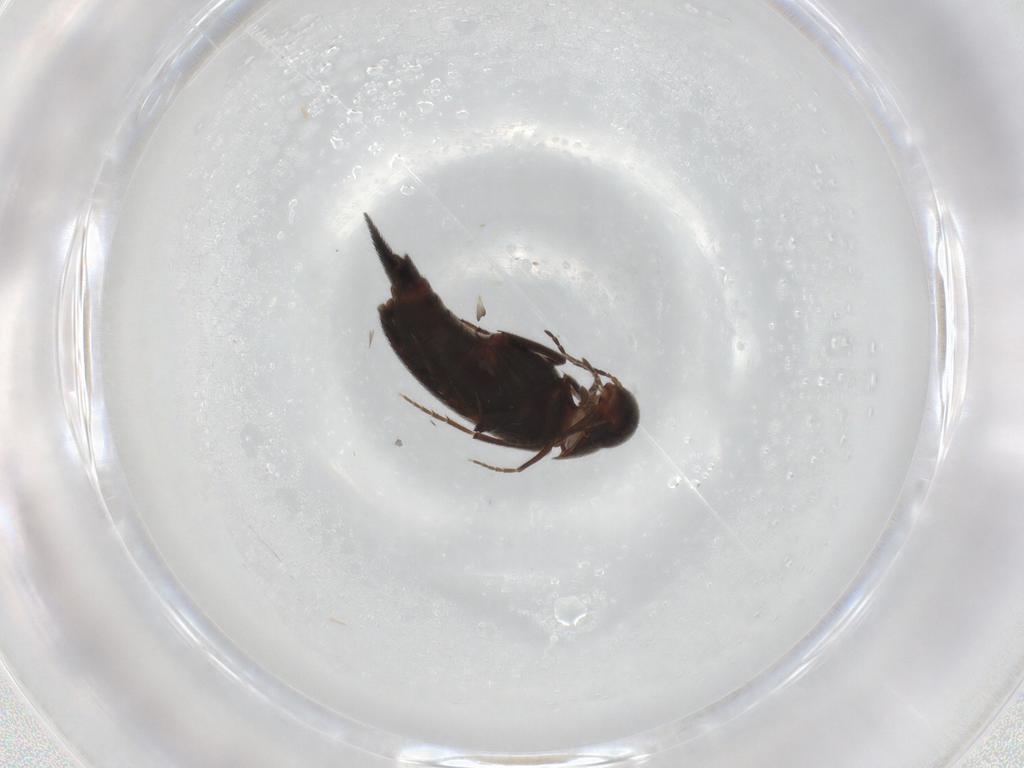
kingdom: Animalia
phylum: Arthropoda
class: Insecta
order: Coleoptera
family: Mordellidae
